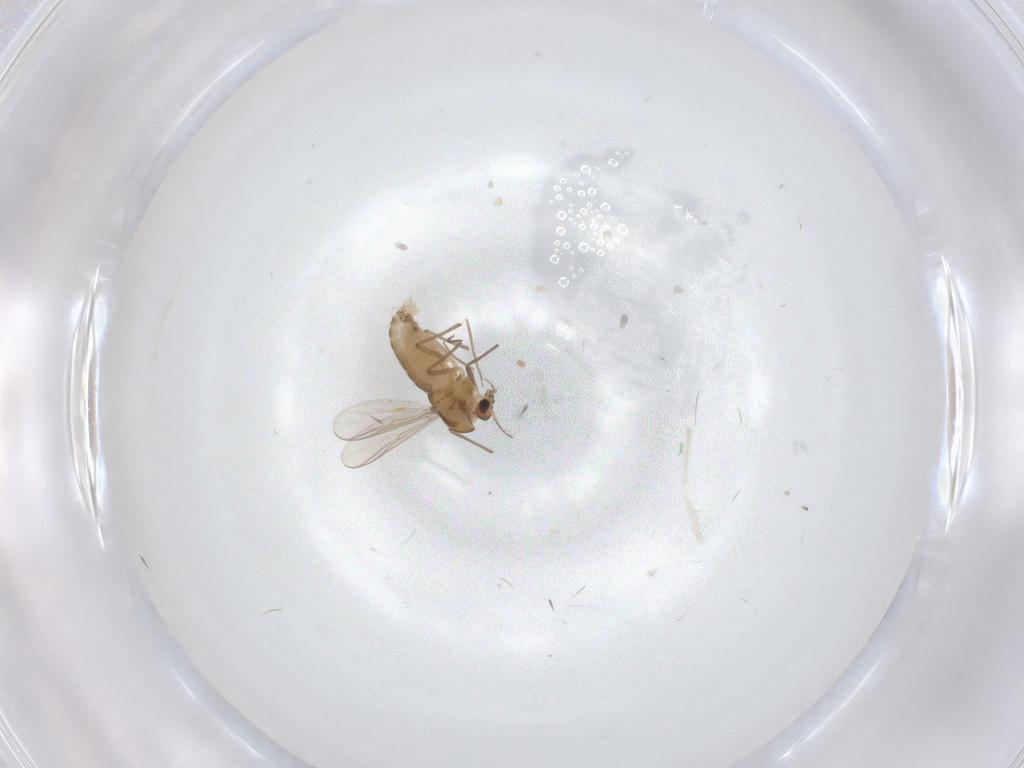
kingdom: Animalia
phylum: Arthropoda
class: Insecta
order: Diptera
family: Chironomidae
